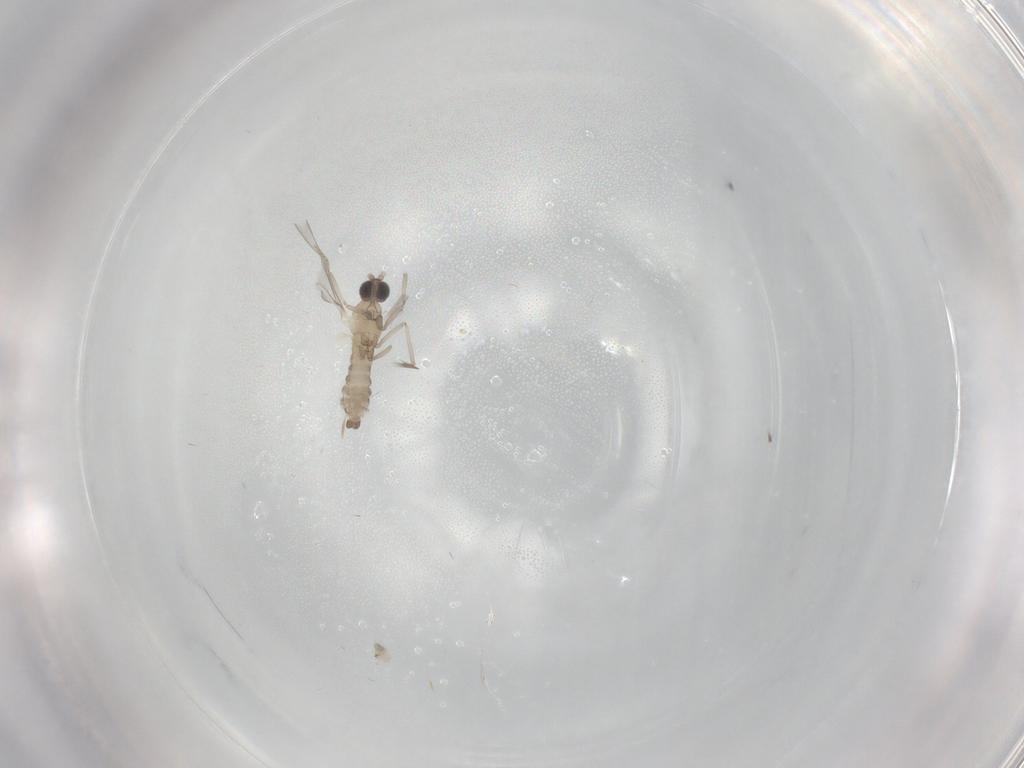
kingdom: Animalia
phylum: Arthropoda
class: Insecta
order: Diptera
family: Cecidomyiidae
